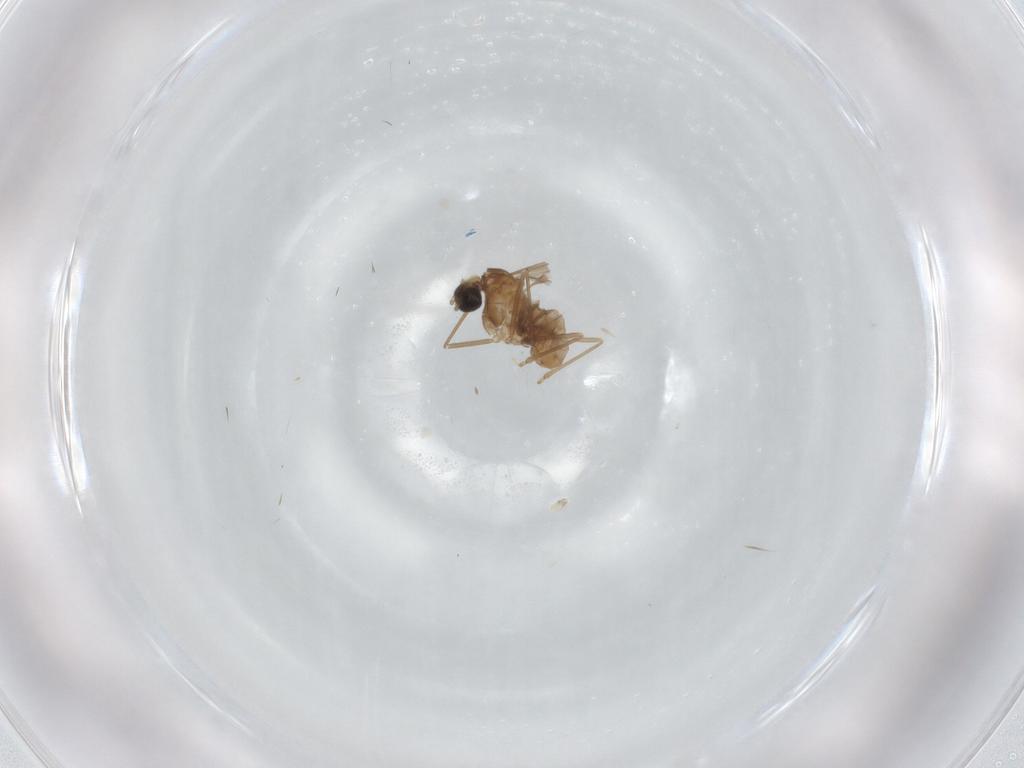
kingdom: Animalia
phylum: Arthropoda
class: Insecta
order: Diptera
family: Cecidomyiidae
